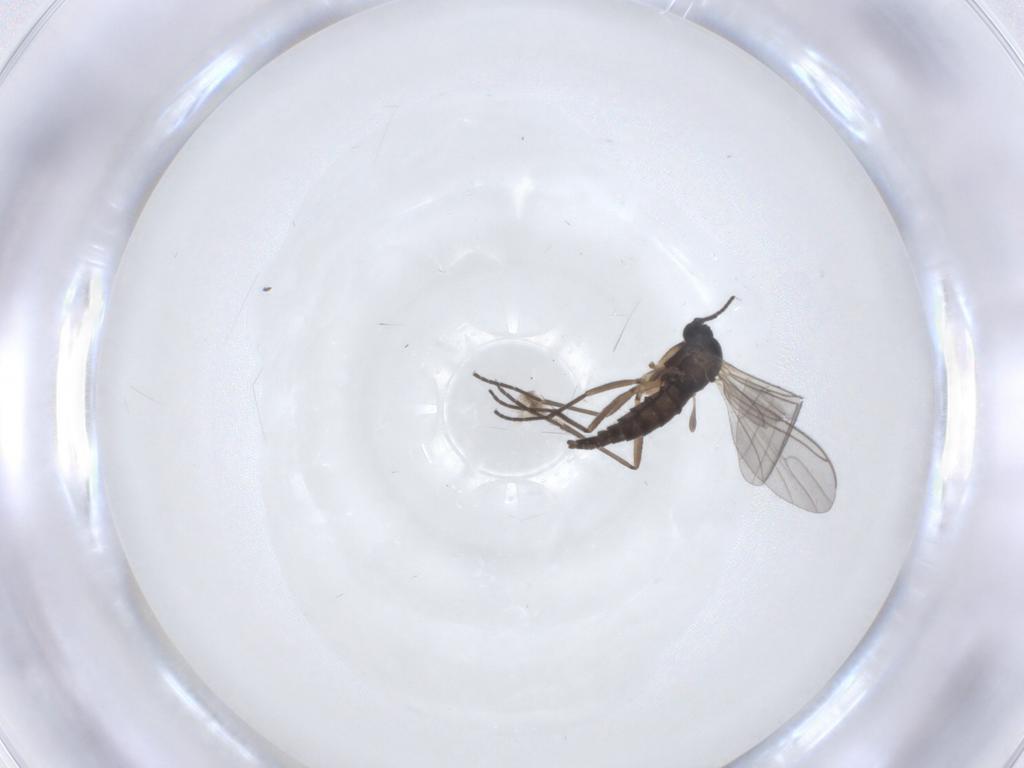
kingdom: Animalia
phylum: Arthropoda
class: Insecta
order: Diptera
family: Sciaridae
